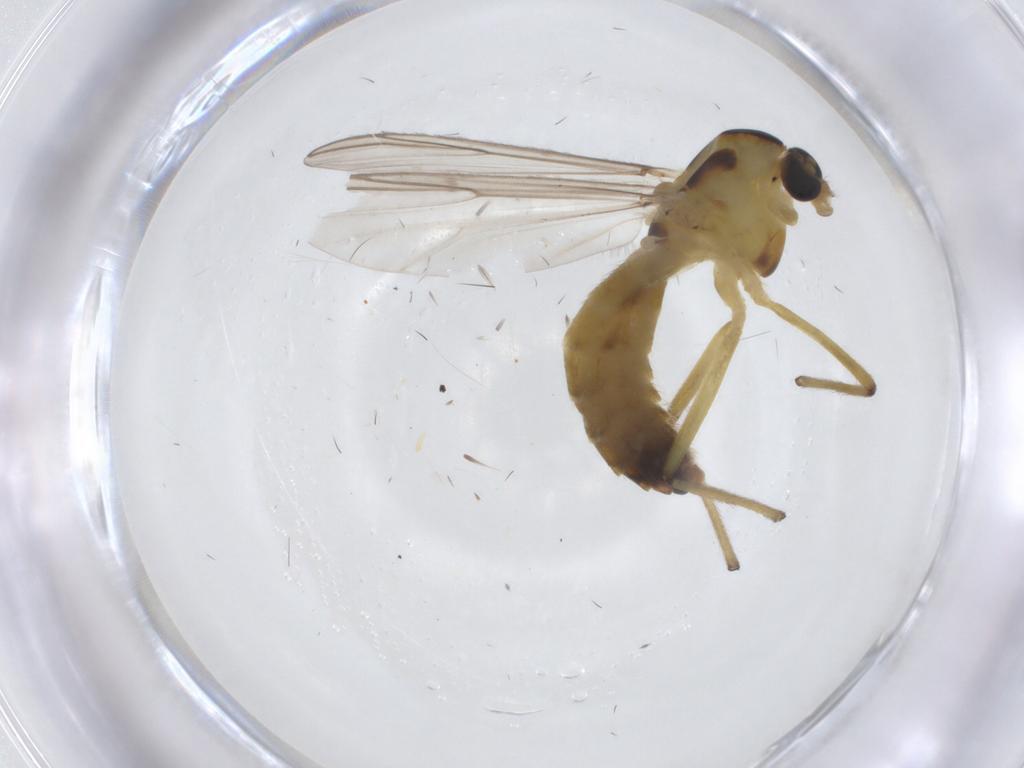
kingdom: Animalia
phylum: Arthropoda
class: Insecta
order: Diptera
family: Chironomidae
